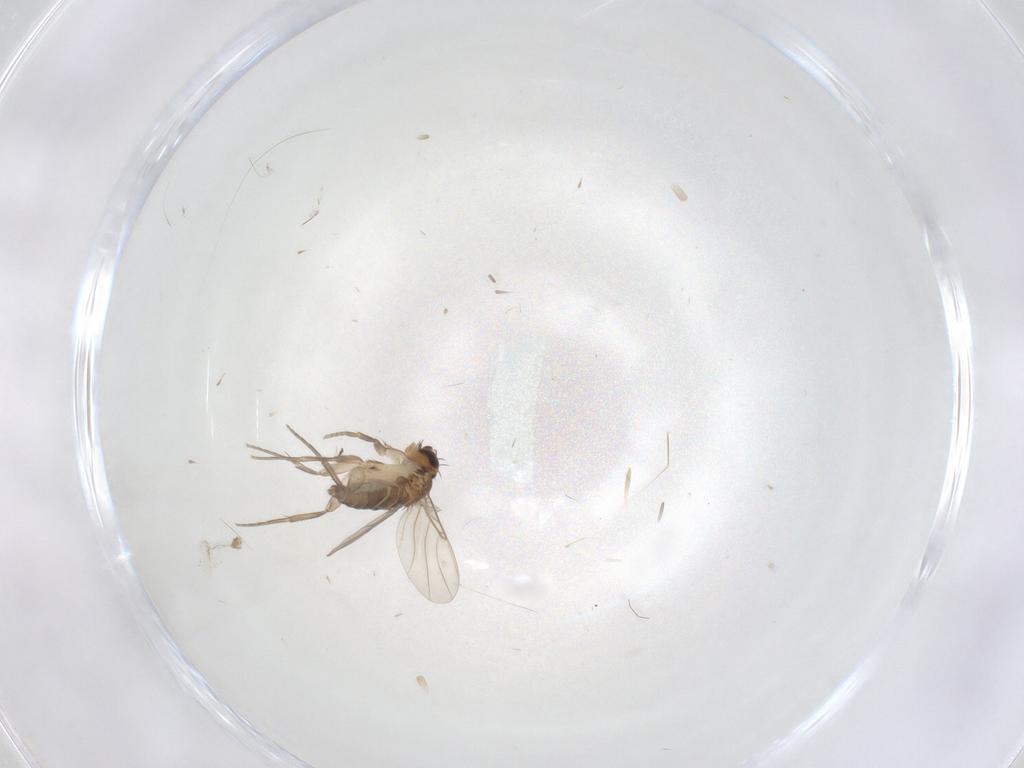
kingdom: Animalia
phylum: Arthropoda
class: Insecta
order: Diptera
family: Phoridae
